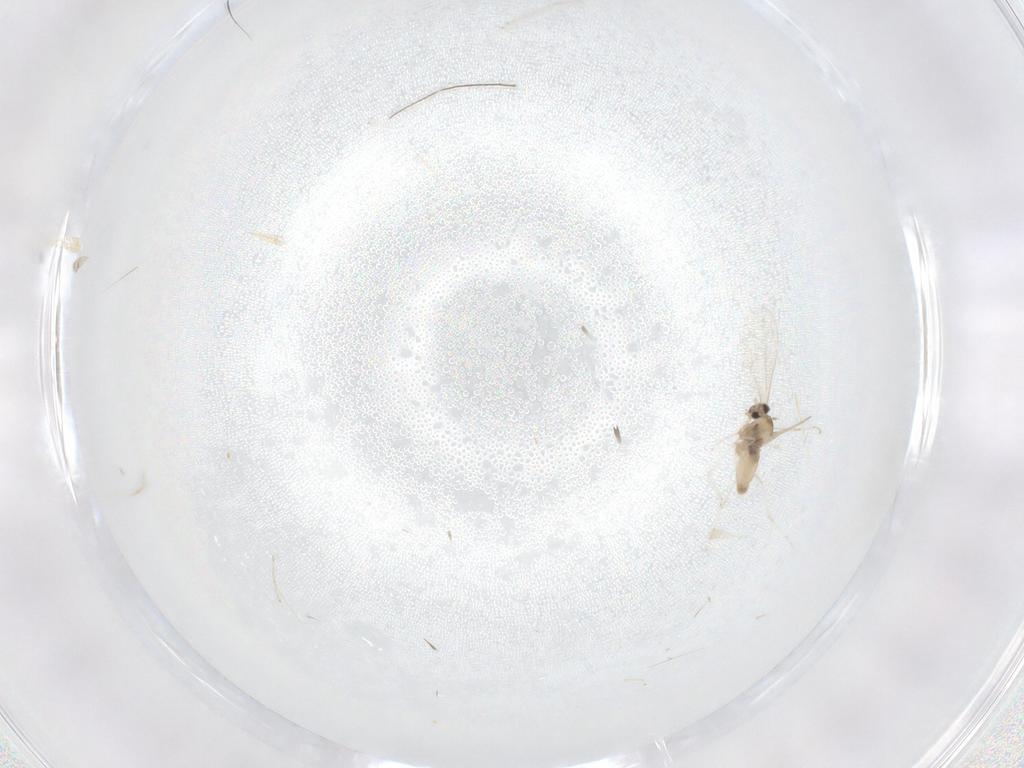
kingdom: Animalia
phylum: Arthropoda
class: Insecta
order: Diptera
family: Cecidomyiidae
